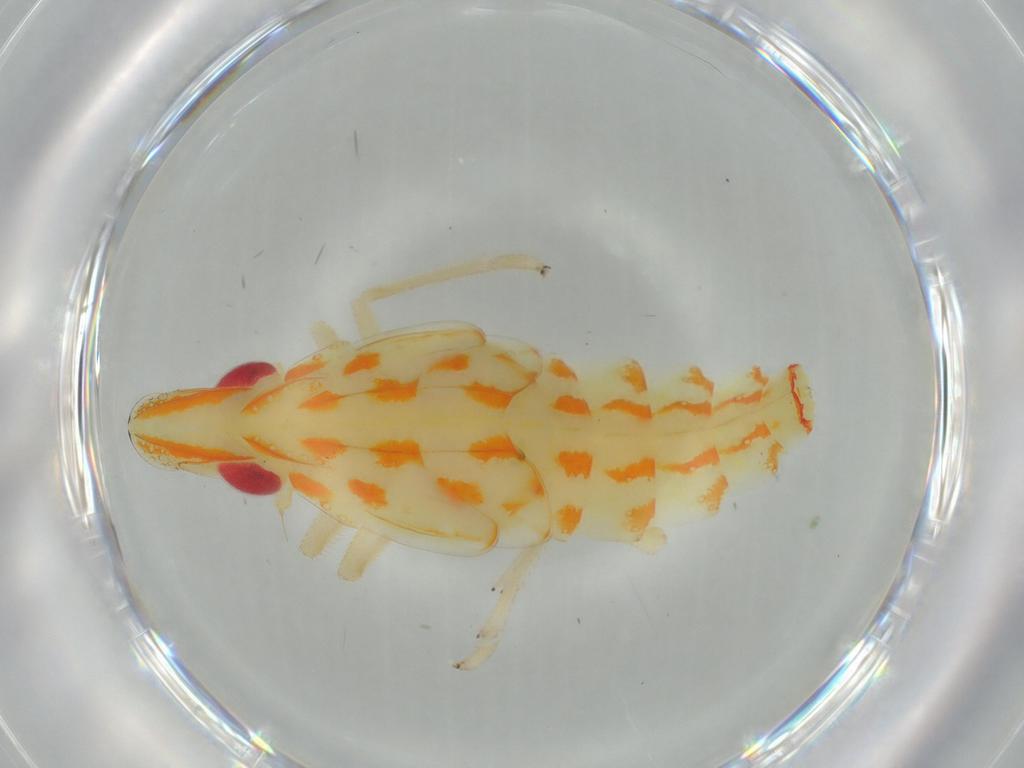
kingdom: Animalia
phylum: Arthropoda
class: Insecta
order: Hemiptera
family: Tropiduchidae
